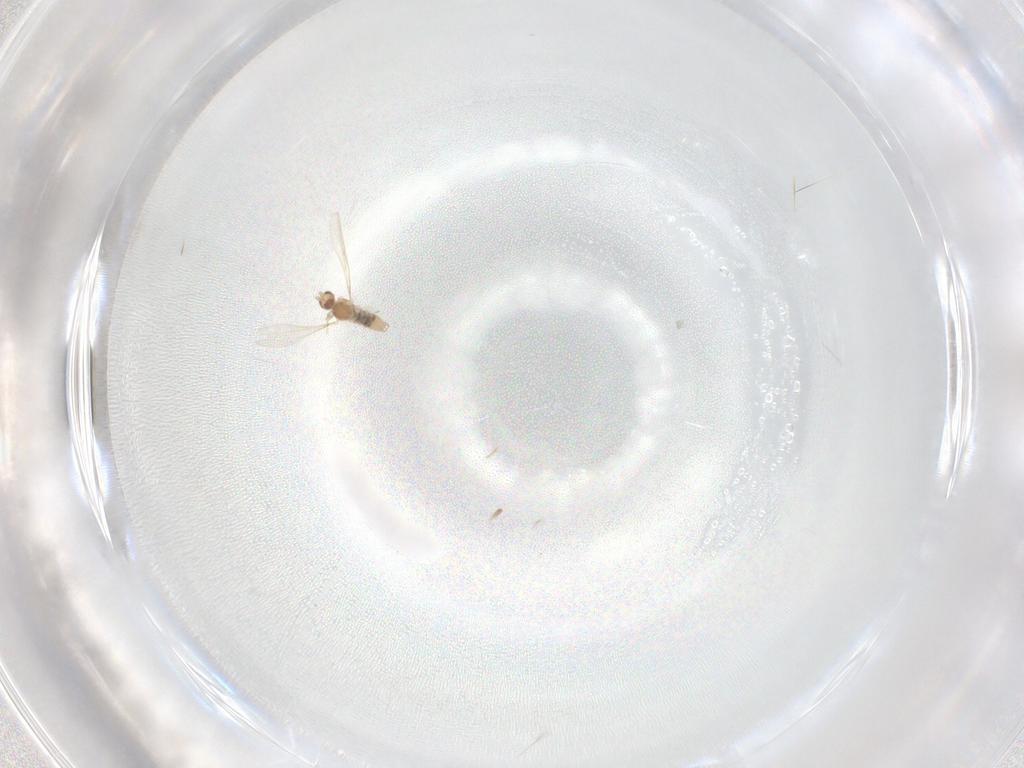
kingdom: Animalia
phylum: Arthropoda
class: Insecta
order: Diptera
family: Cecidomyiidae
